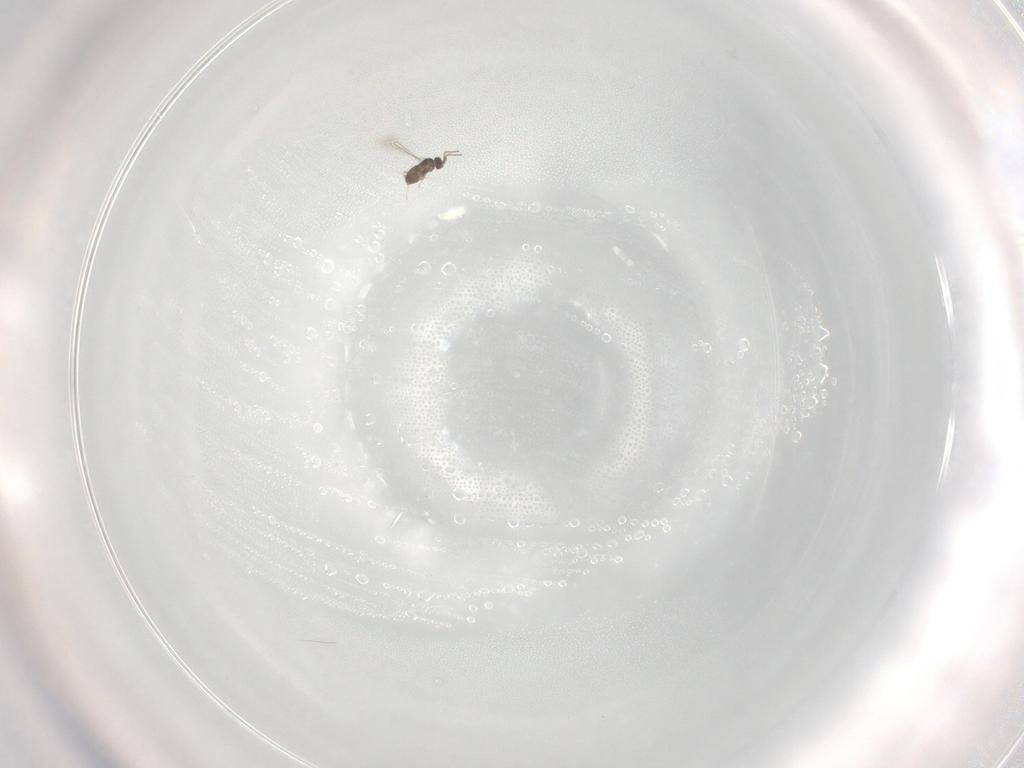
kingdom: Animalia
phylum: Arthropoda
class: Insecta
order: Hymenoptera
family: Mymaridae
